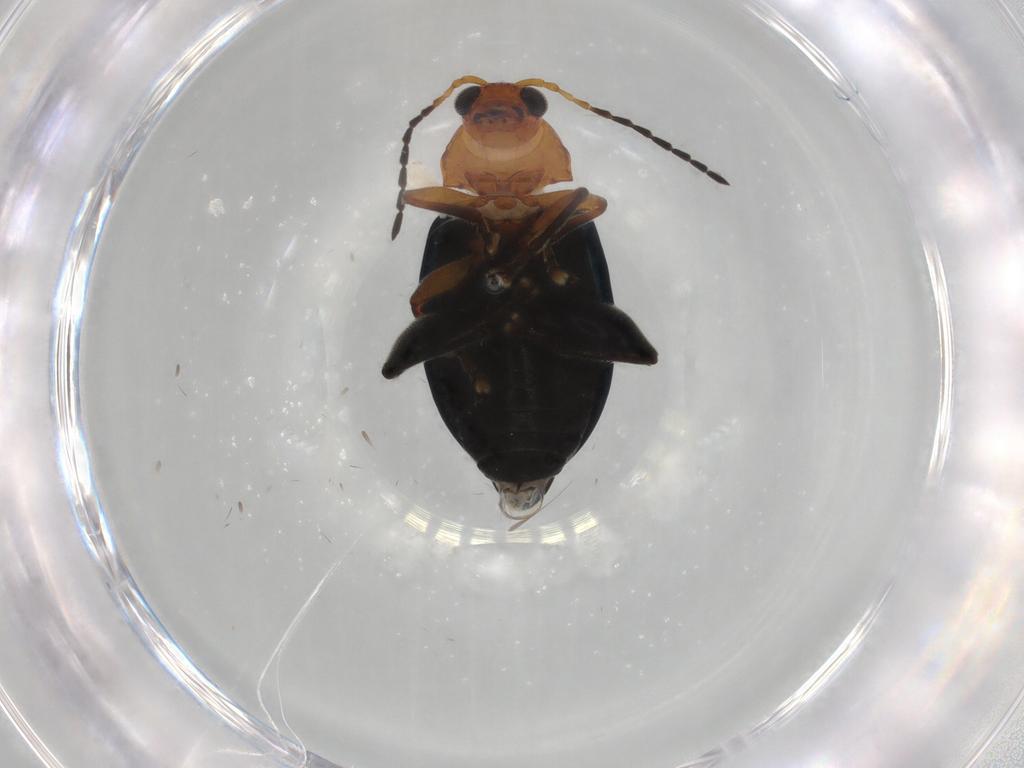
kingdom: Animalia
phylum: Arthropoda
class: Insecta
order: Coleoptera
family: Chrysomelidae
